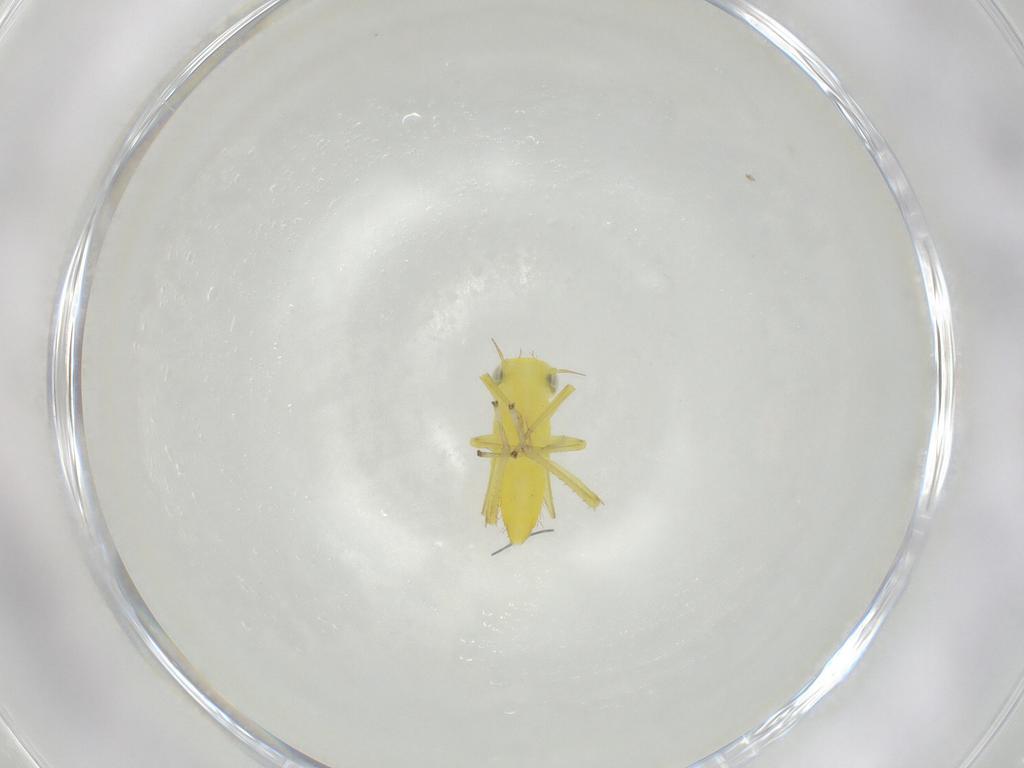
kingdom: Animalia
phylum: Arthropoda
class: Insecta
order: Hemiptera
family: Cicadellidae
